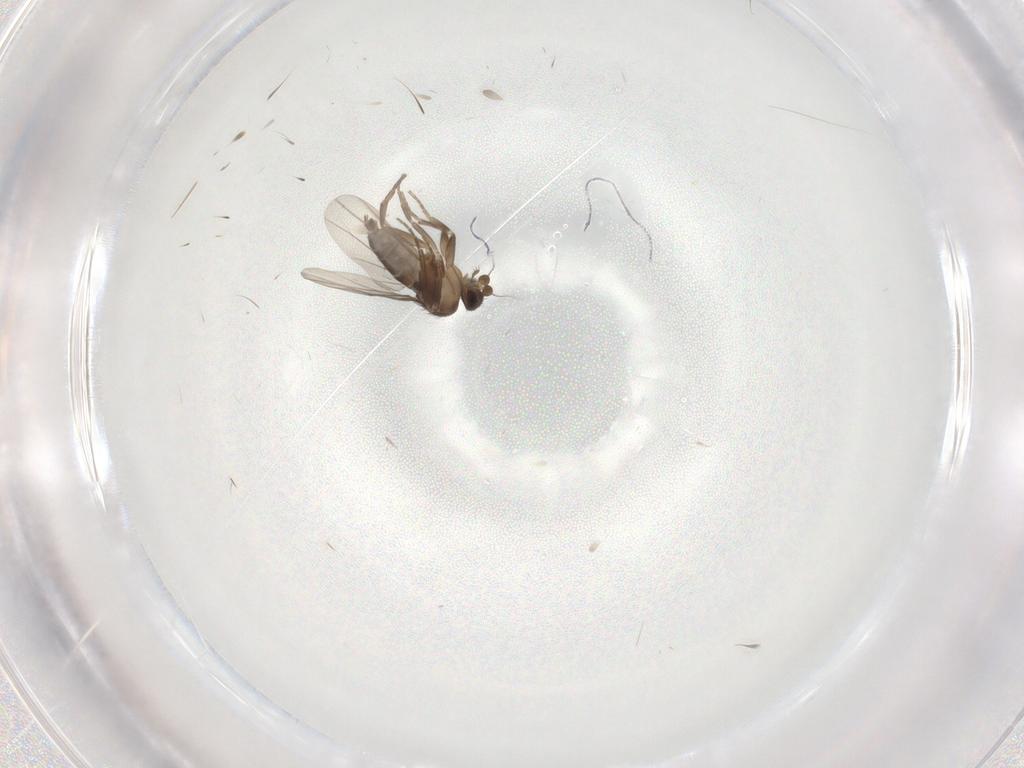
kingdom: Animalia
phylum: Arthropoda
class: Insecta
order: Diptera
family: Phoridae
